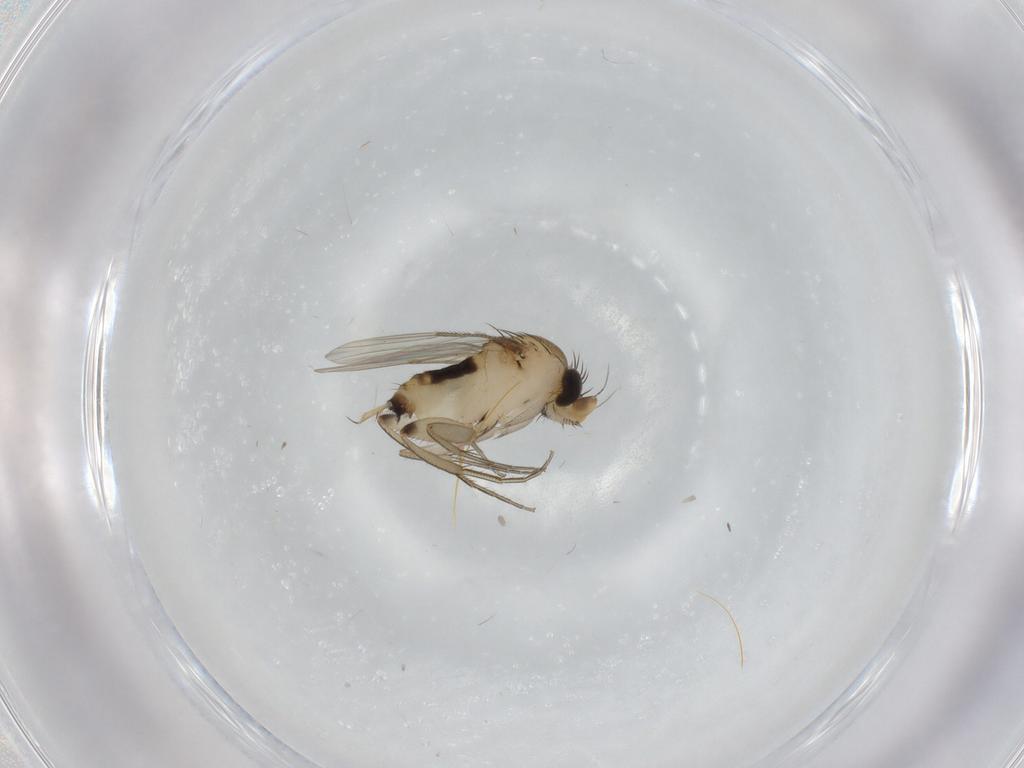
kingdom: Animalia
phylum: Arthropoda
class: Insecta
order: Diptera
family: Phoridae
